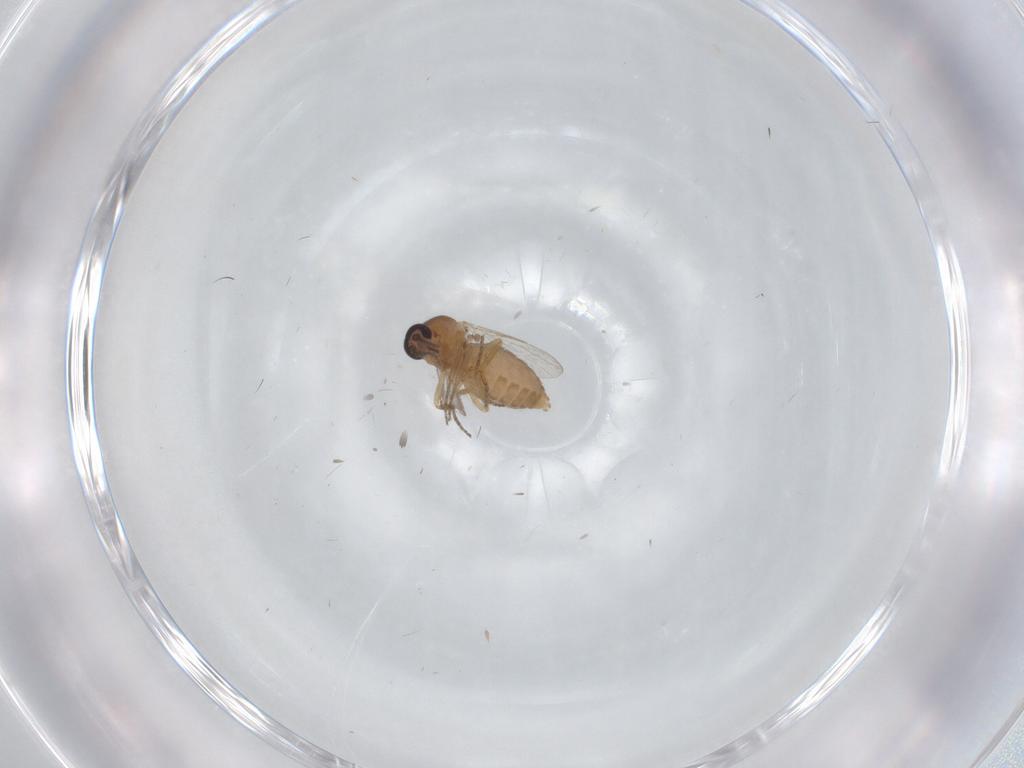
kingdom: Animalia
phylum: Arthropoda
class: Insecta
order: Diptera
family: Ceratopogonidae
